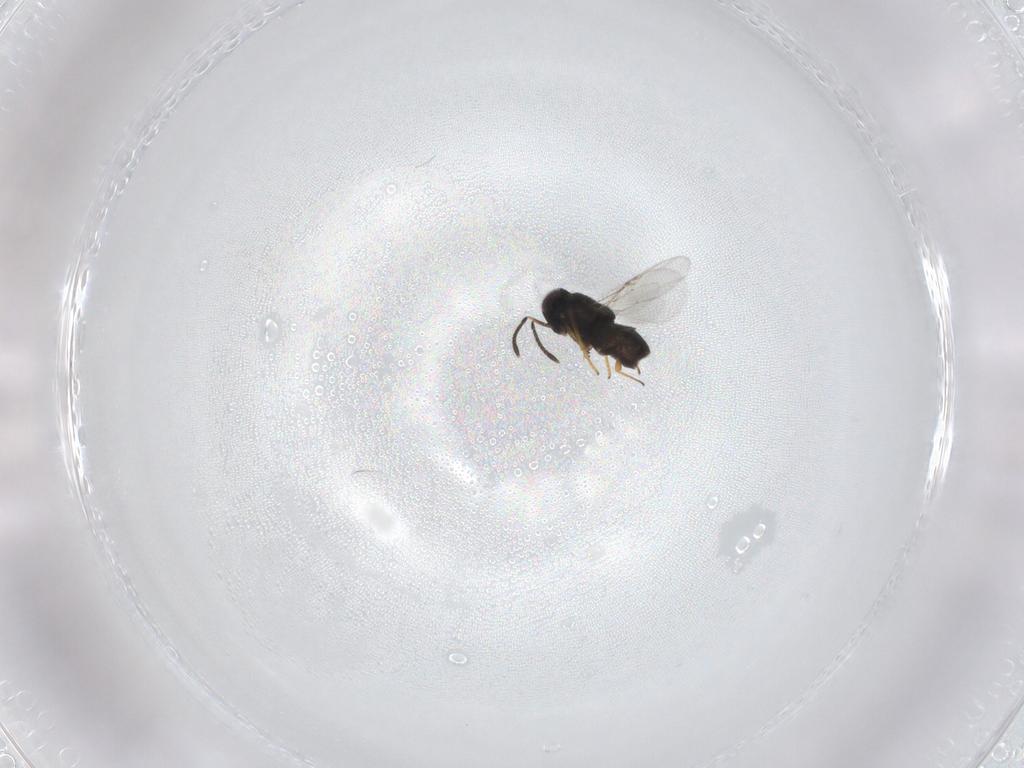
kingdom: Animalia
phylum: Arthropoda
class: Insecta
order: Hymenoptera
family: Apidae
